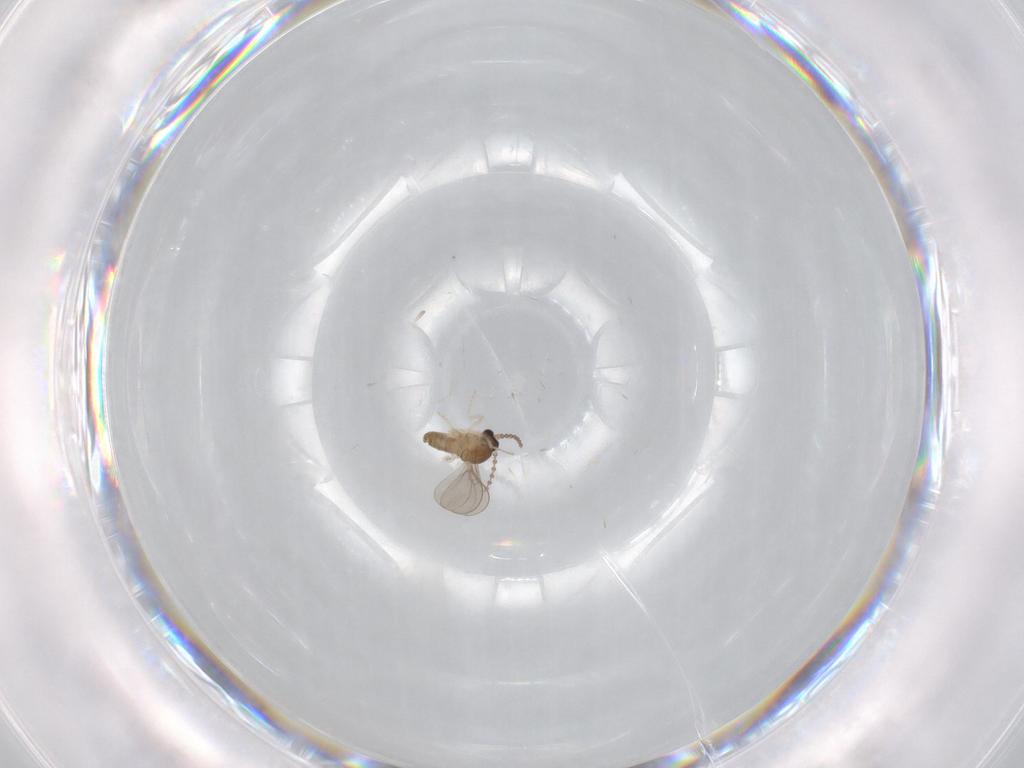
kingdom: Animalia
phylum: Arthropoda
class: Insecta
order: Diptera
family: Cecidomyiidae
